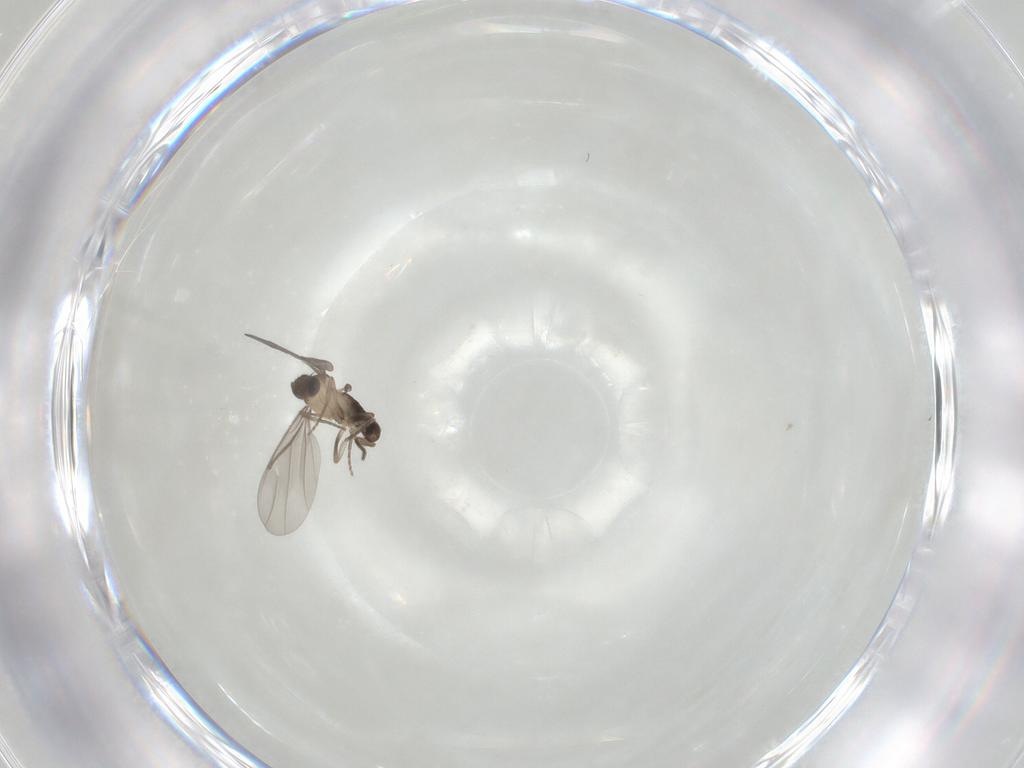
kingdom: Animalia
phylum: Arthropoda
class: Insecta
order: Diptera
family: Phoridae
